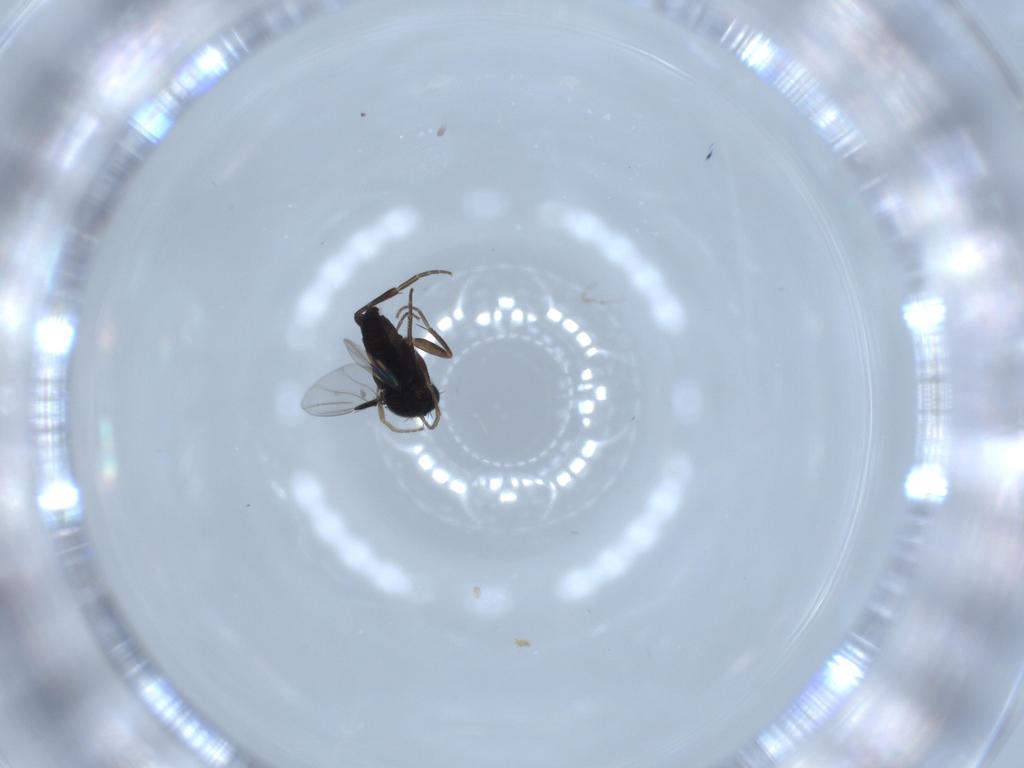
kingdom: Animalia
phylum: Arthropoda
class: Insecta
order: Diptera
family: Phoridae
